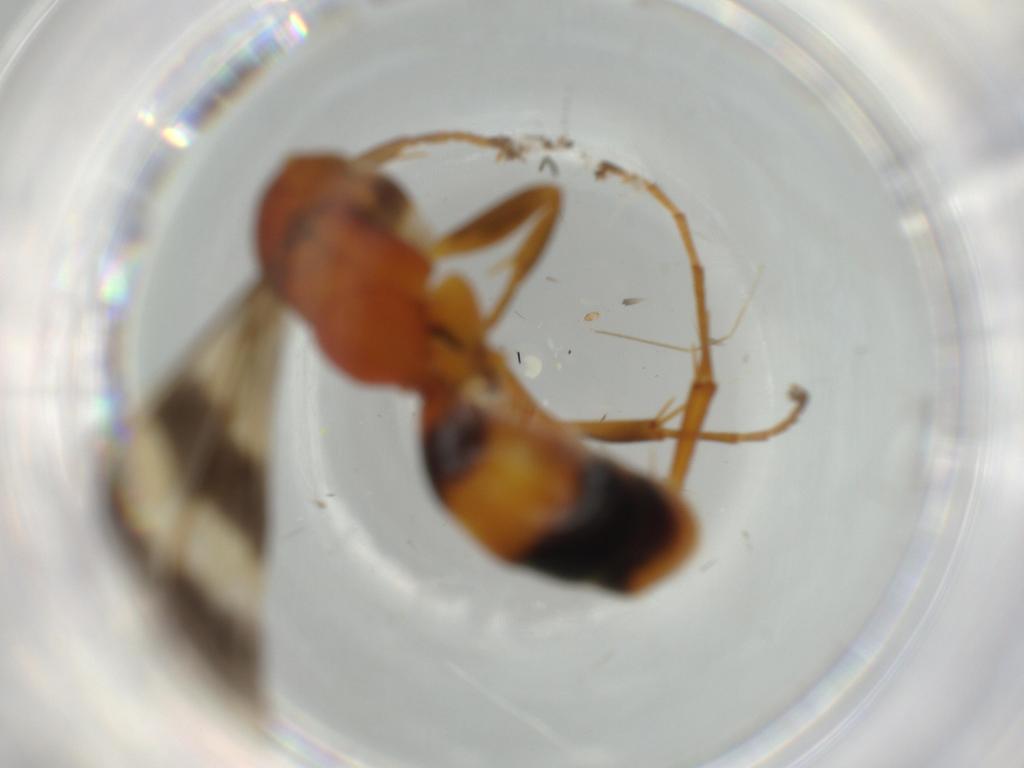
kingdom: Animalia
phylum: Arthropoda
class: Insecta
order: Hymenoptera
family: Pompilidae
